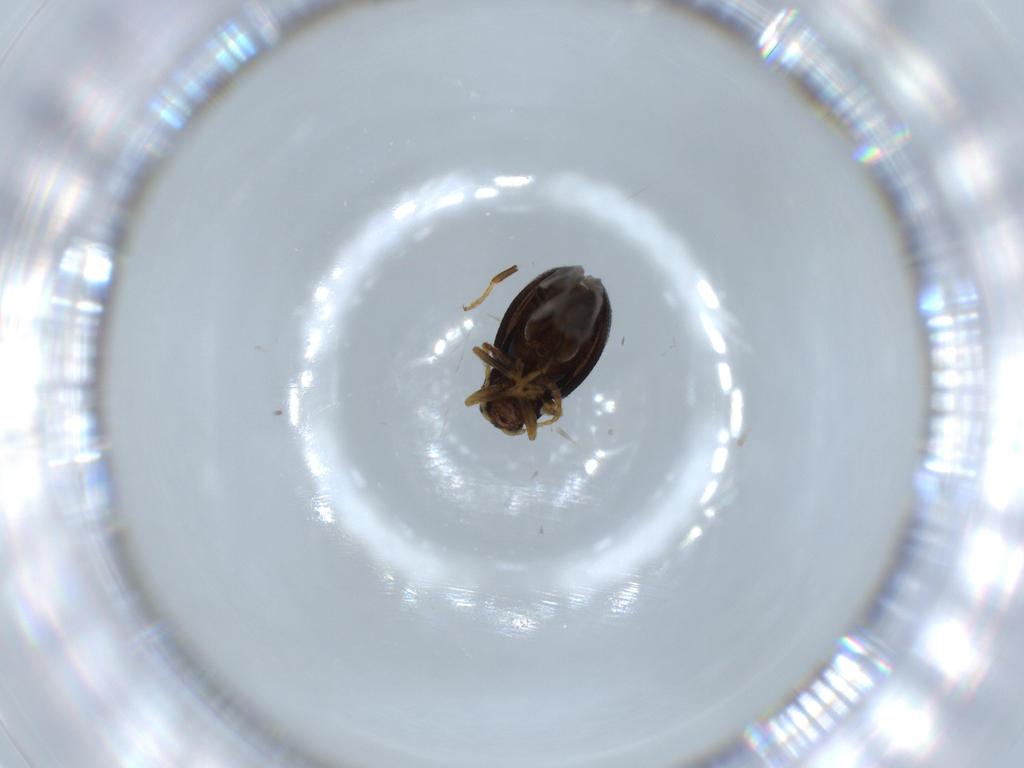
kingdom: Animalia
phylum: Arthropoda
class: Insecta
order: Coleoptera
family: Chrysomelidae
